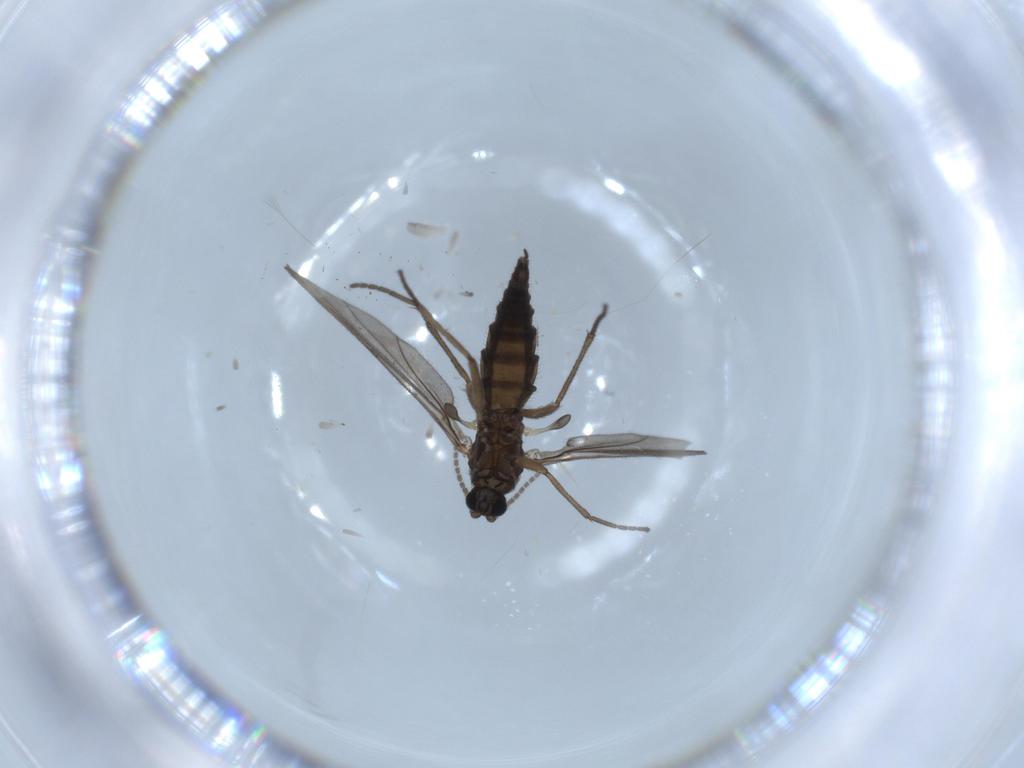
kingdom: Animalia
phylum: Arthropoda
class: Insecta
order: Diptera
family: Sciaridae
